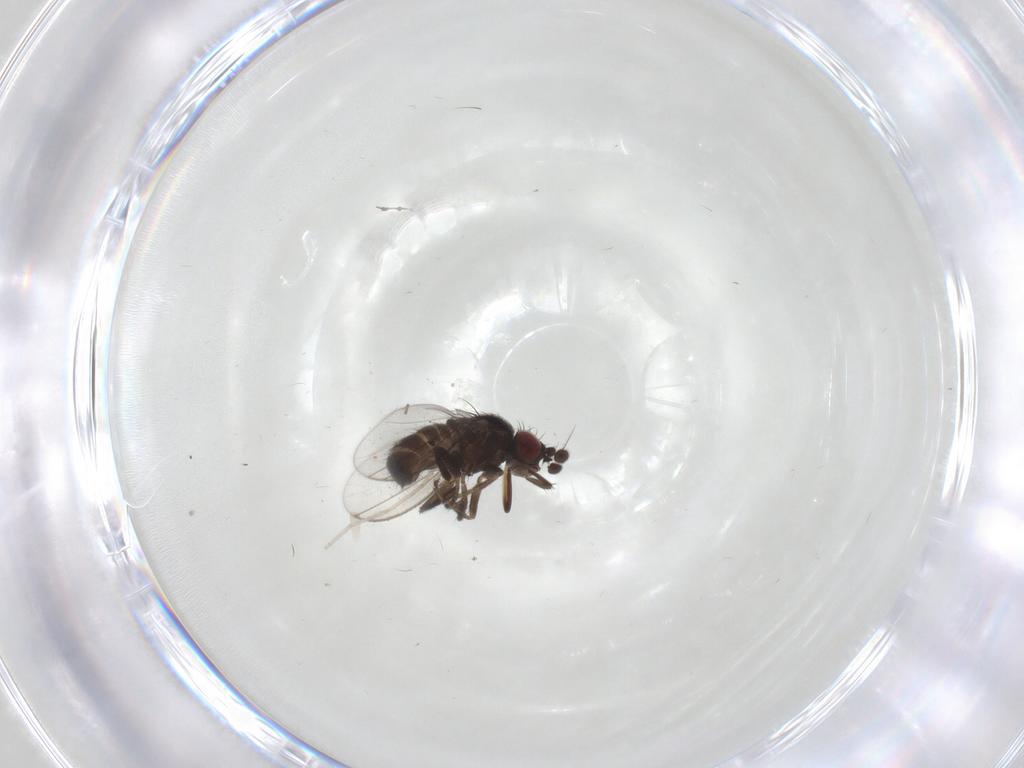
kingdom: Animalia
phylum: Arthropoda
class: Insecta
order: Diptera
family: Milichiidae
